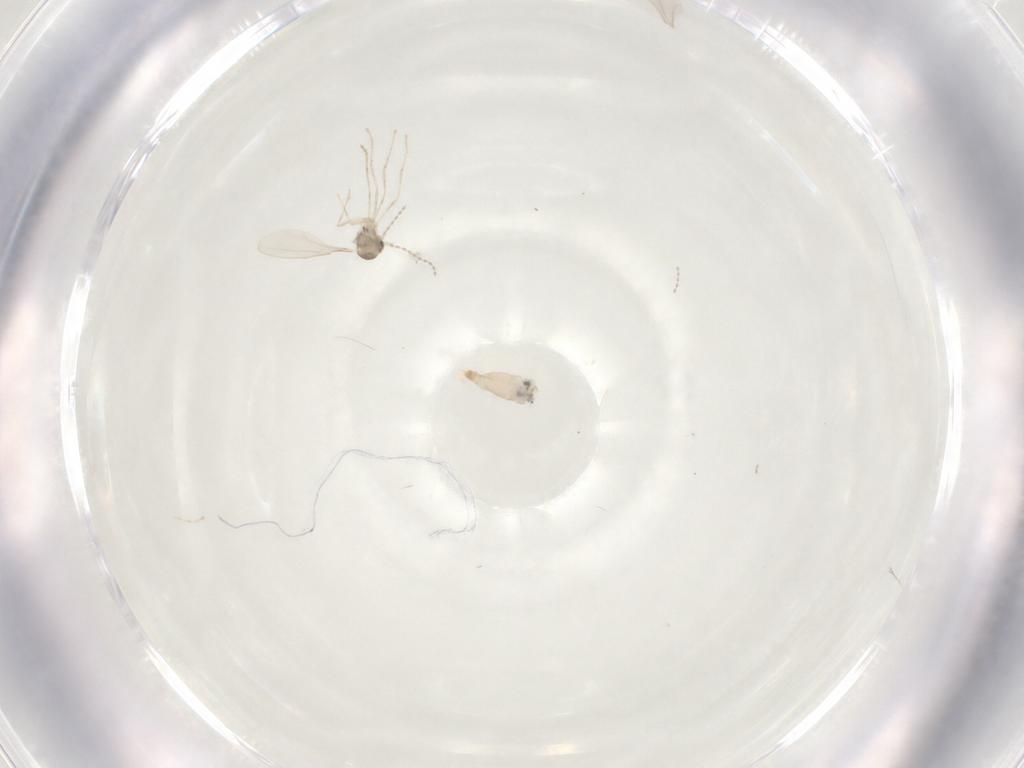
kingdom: Animalia
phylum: Arthropoda
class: Insecta
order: Diptera
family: Cecidomyiidae
